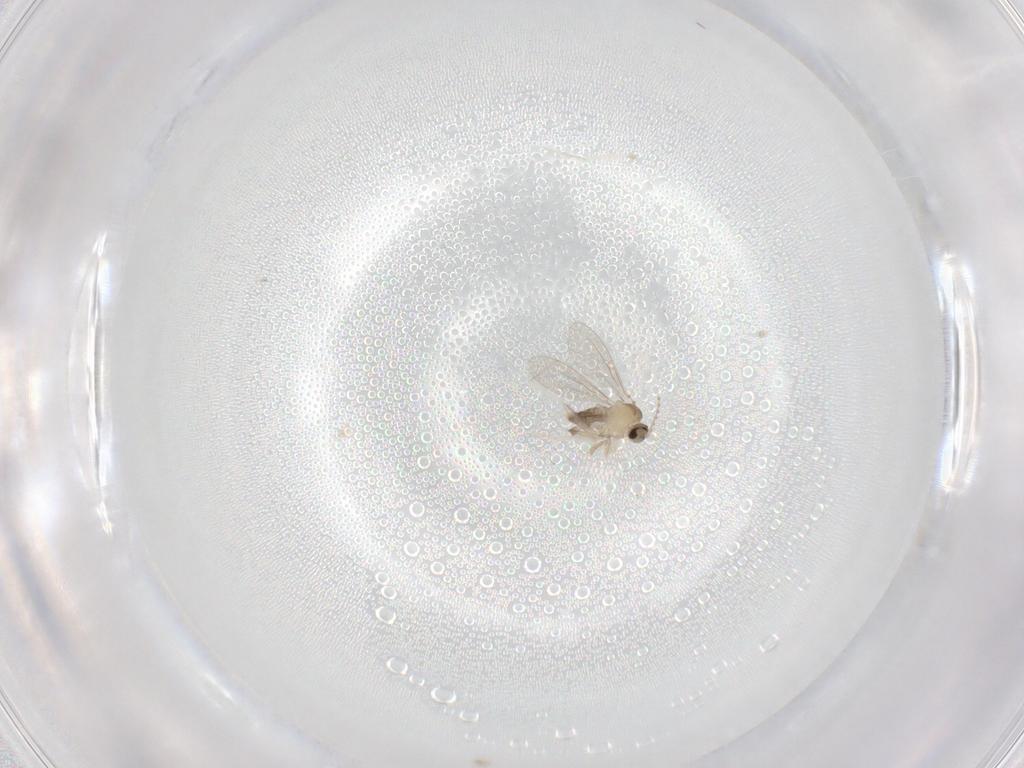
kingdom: Animalia
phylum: Arthropoda
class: Insecta
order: Diptera
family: Cecidomyiidae
